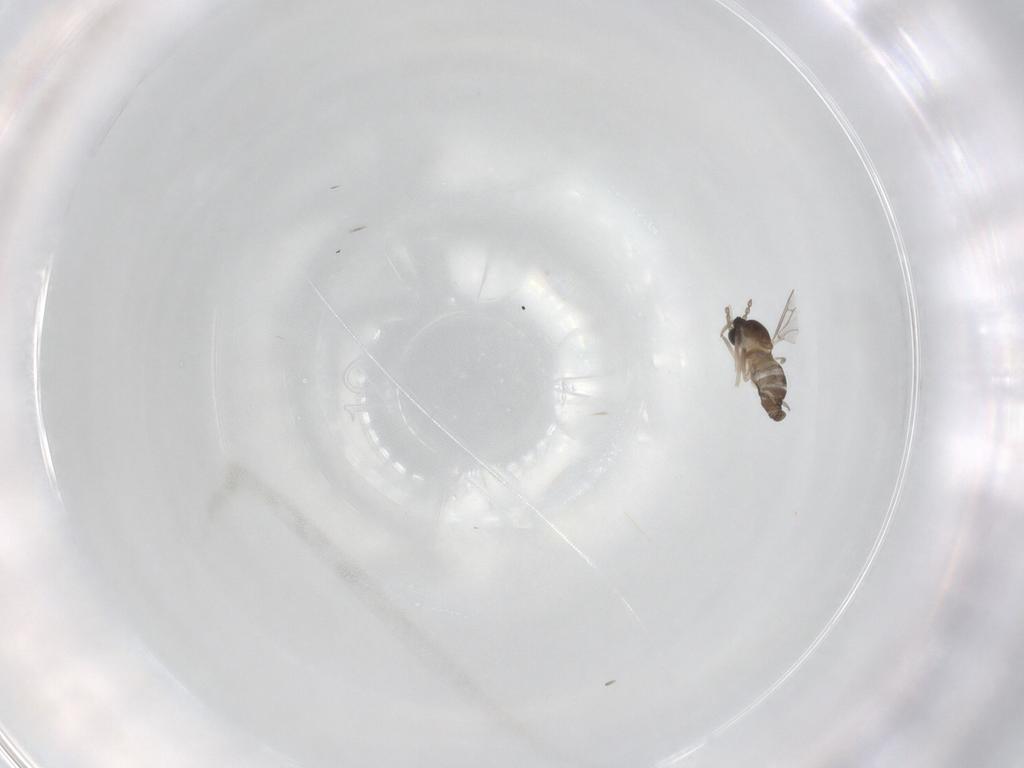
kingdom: Animalia
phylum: Arthropoda
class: Insecta
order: Diptera
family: Cecidomyiidae
